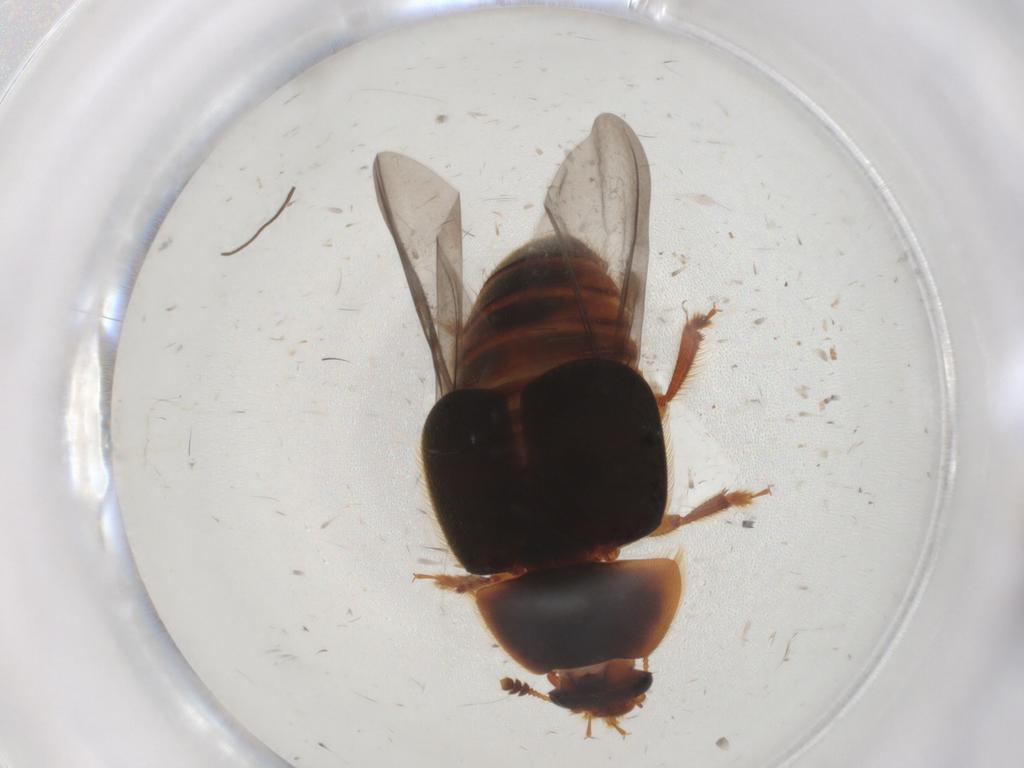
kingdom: Animalia
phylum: Arthropoda
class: Insecta
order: Coleoptera
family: Nitidulidae
